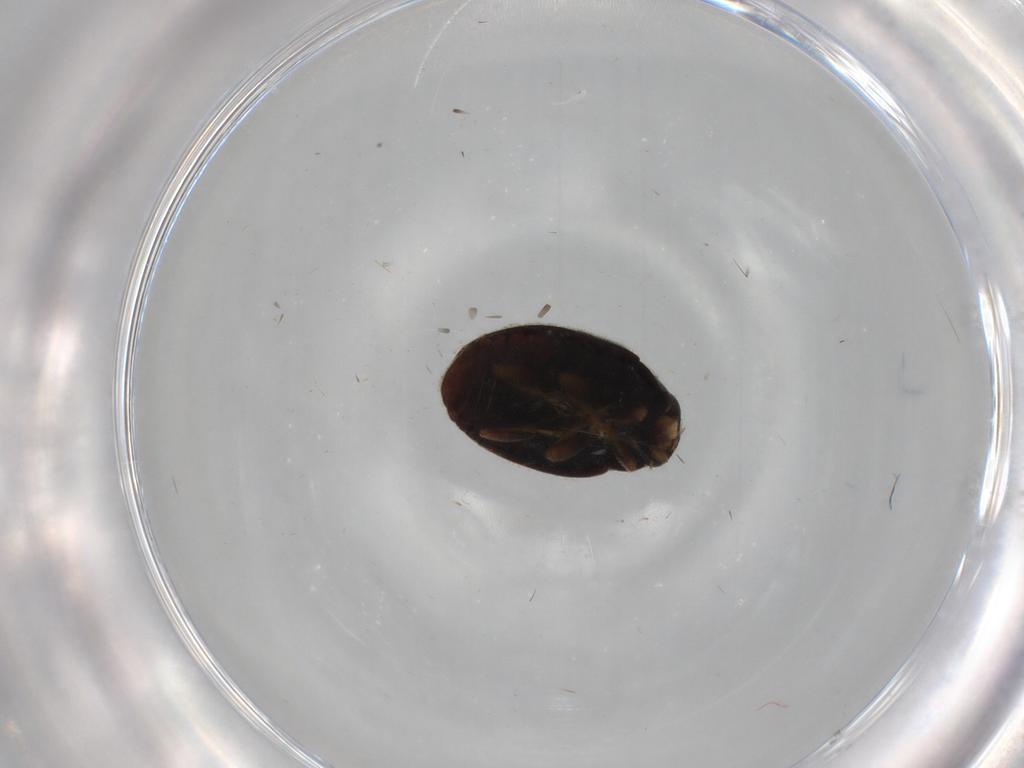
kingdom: Animalia
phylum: Arthropoda
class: Insecta
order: Coleoptera
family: Coccinellidae
